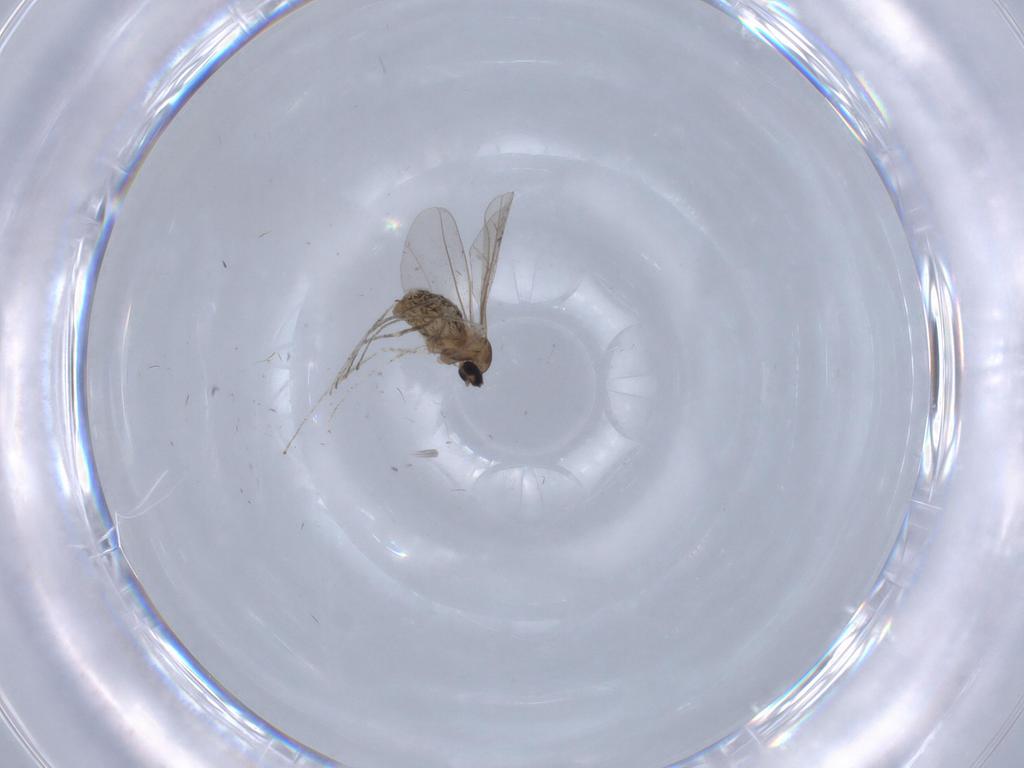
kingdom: Animalia
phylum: Arthropoda
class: Insecta
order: Diptera
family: Cecidomyiidae
